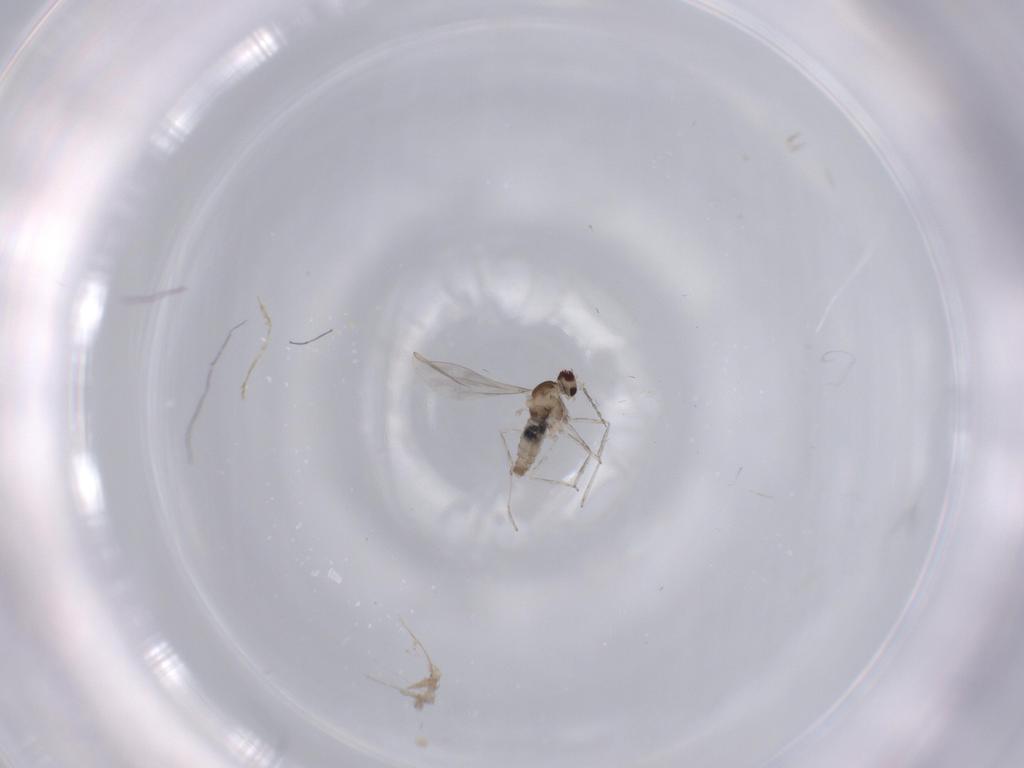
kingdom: Animalia
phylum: Arthropoda
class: Insecta
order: Diptera
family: Cecidomyiidae
